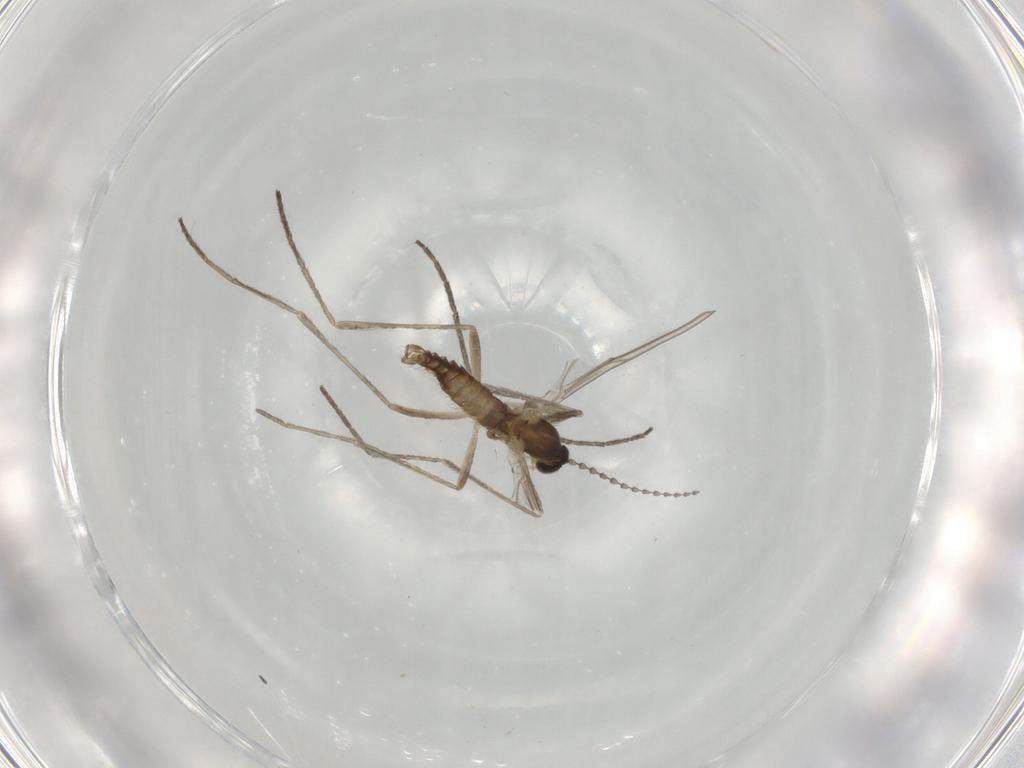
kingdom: Animalia
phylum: Arthropoda
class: Insecta
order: Diptera
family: Cecidomyiidae
